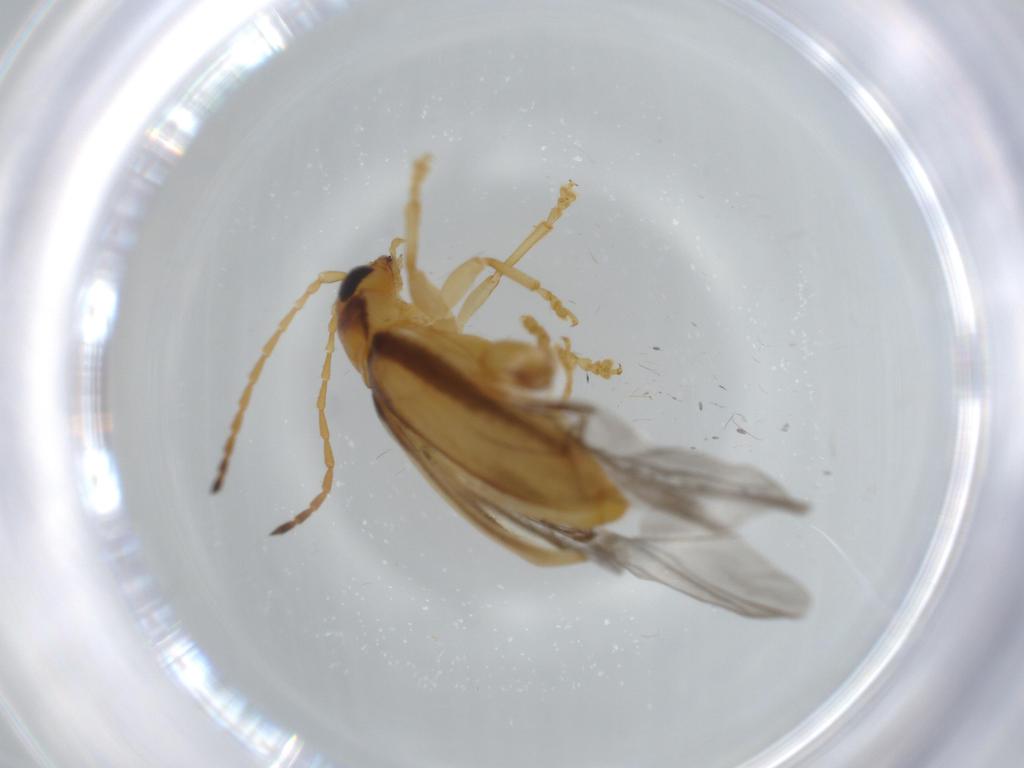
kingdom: Animalia
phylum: Arthropoda
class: Insecta
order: Coleoptera
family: Chrysomelidae
